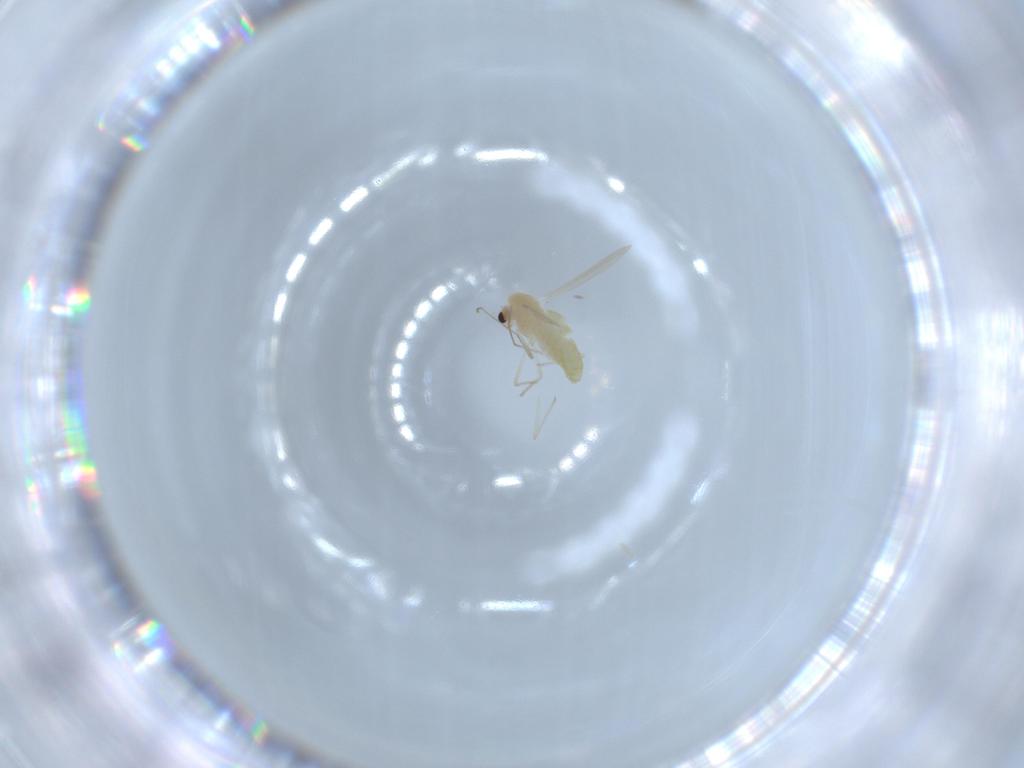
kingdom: Animalia
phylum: Arthropoda
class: Insecta
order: Diptera
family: Chironomidae
